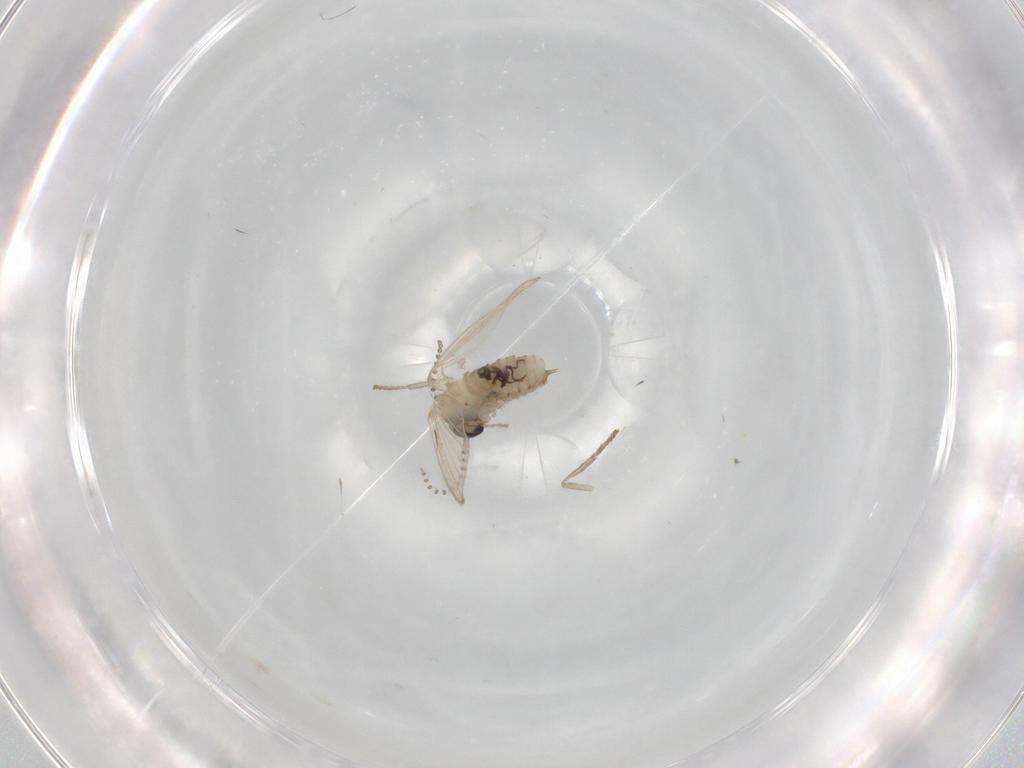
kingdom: Animalia
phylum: Arthropoda
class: Insecta
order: Diptera
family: Psychodidae
